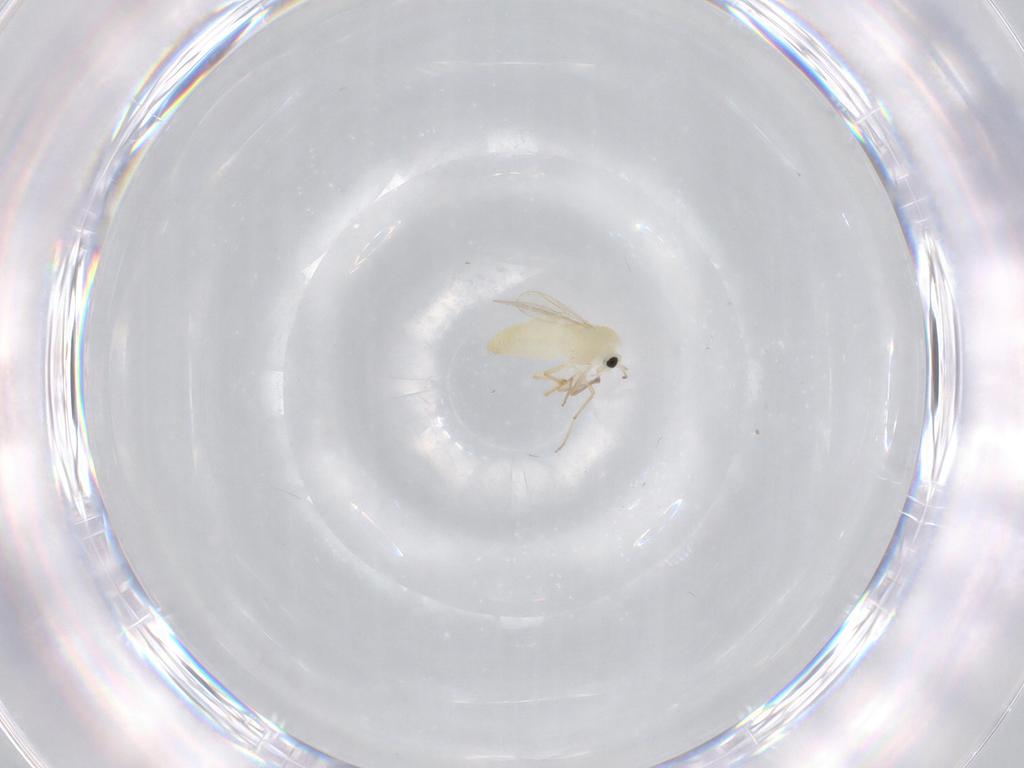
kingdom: Animalia
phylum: Arthropoda
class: Insecta
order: Diptera
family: Chironomidae
